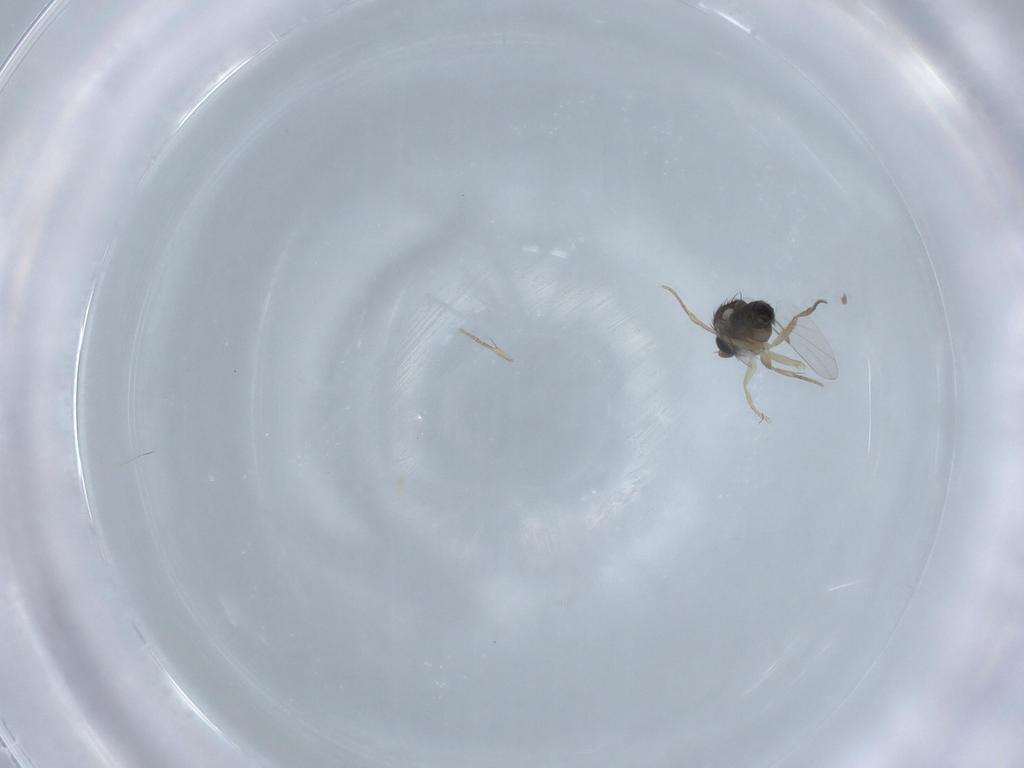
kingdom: Animalia
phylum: Arthropoda
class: Insecta
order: Diptera
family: Phoridae
